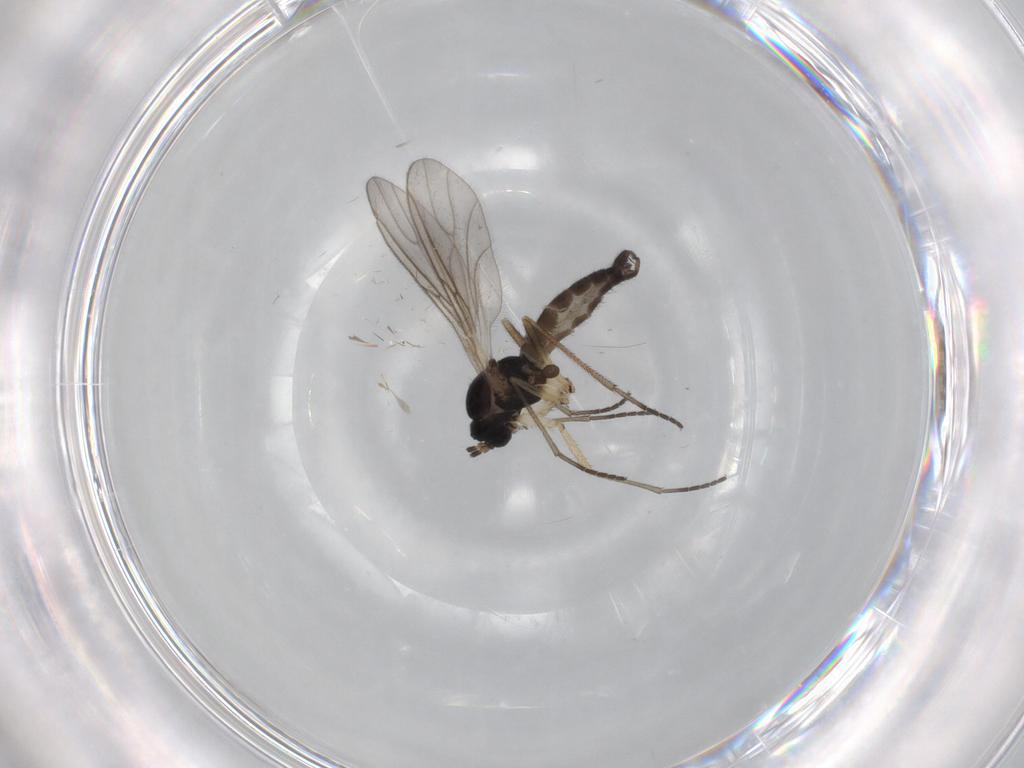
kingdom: Animalia
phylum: Arthropoda
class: Insecta
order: Diptera
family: Sciaridae
